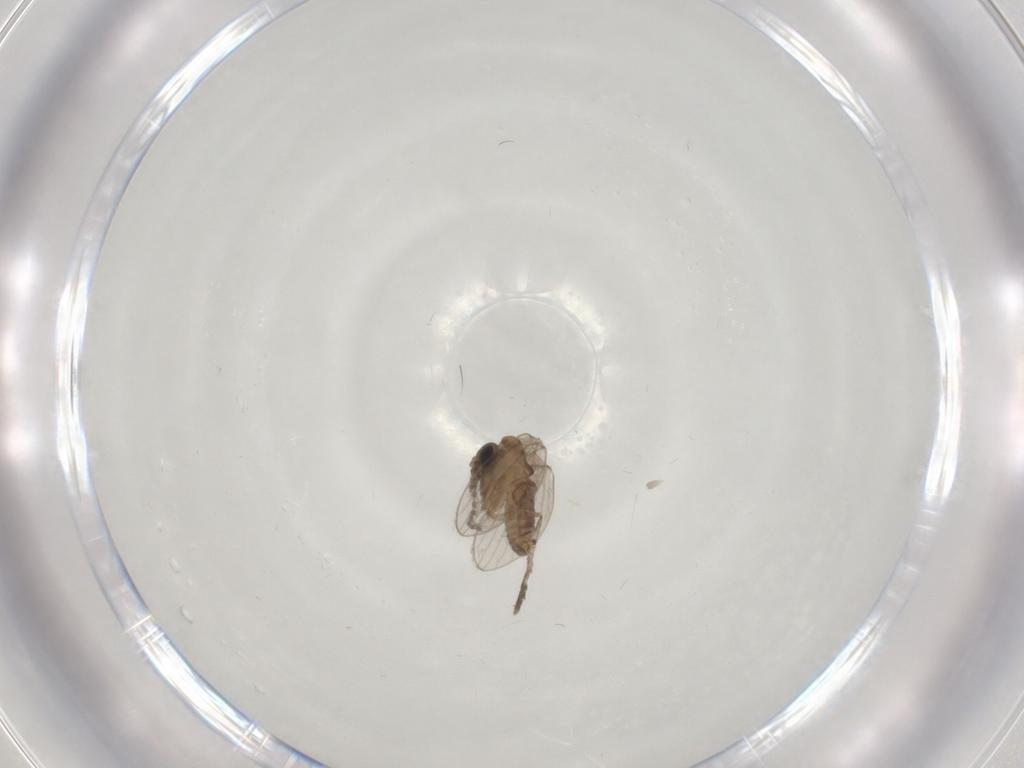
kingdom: Animalia
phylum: Arthropoda
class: Insecta
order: Diptera
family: Psychodidae
